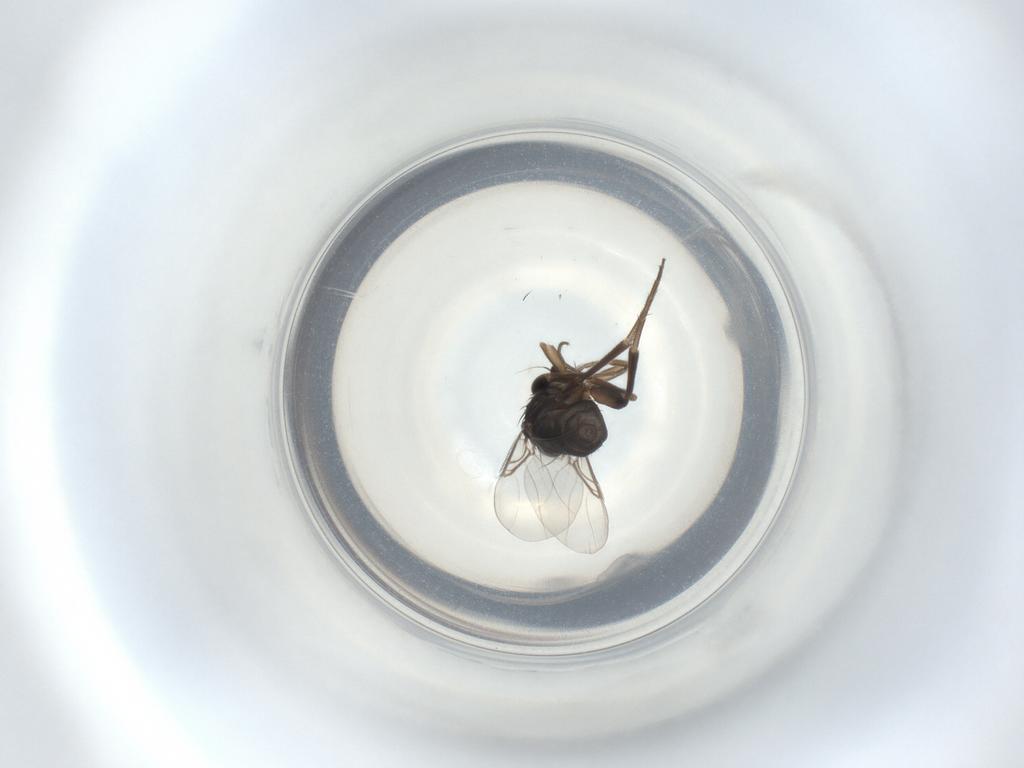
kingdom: Animalia
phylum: Arthropoda
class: Insecta
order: Diptera
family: Phoridae
